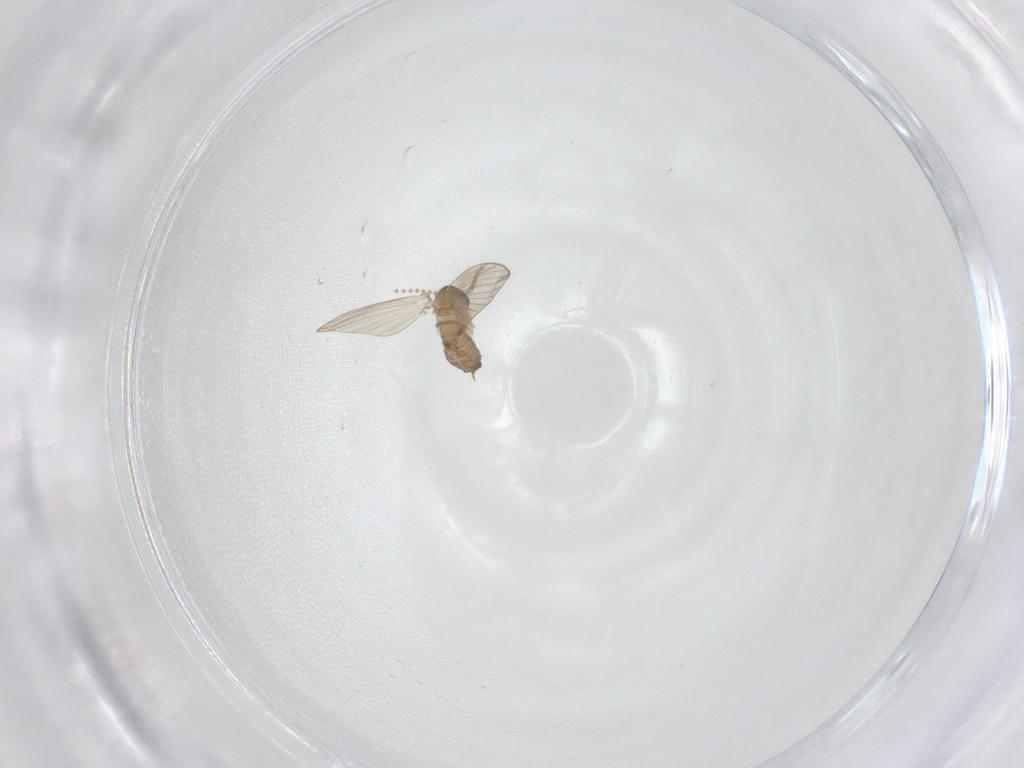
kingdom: Animalia
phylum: Arthropoda
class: Insecta
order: Diptera
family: Psychodidae
